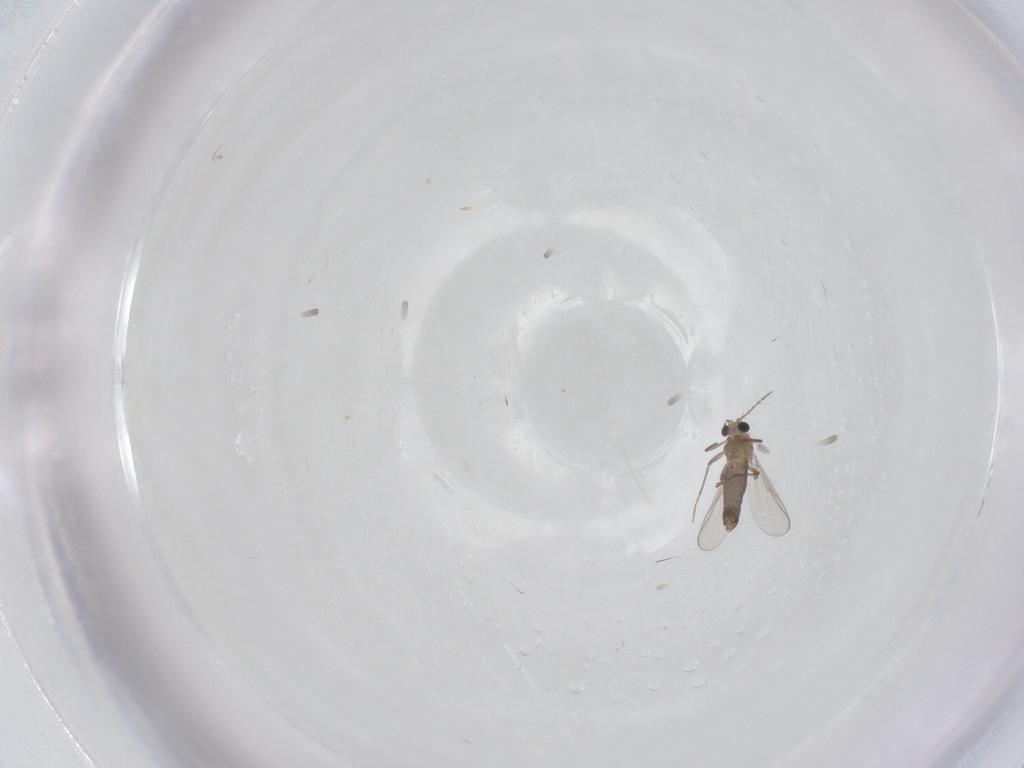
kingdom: Animalia
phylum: Arthropoda
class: Insecta
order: Diptera
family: Chironomidae
